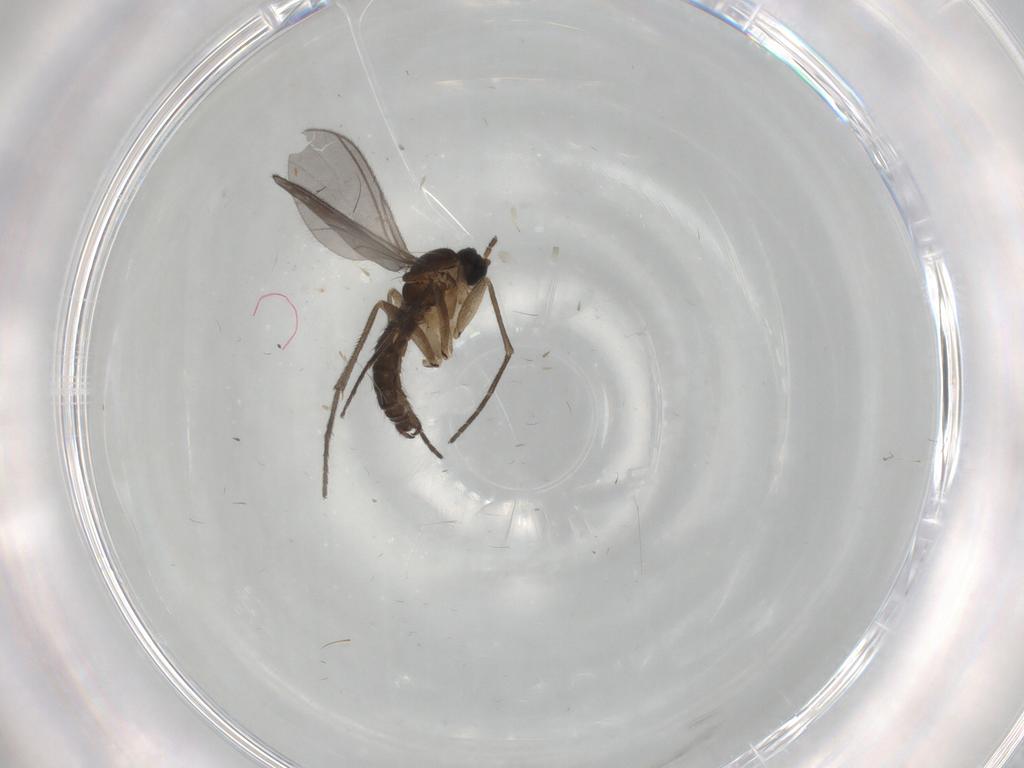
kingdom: Animalia
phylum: Arthropoda
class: Insecta
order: Diptera
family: Sciaridae
